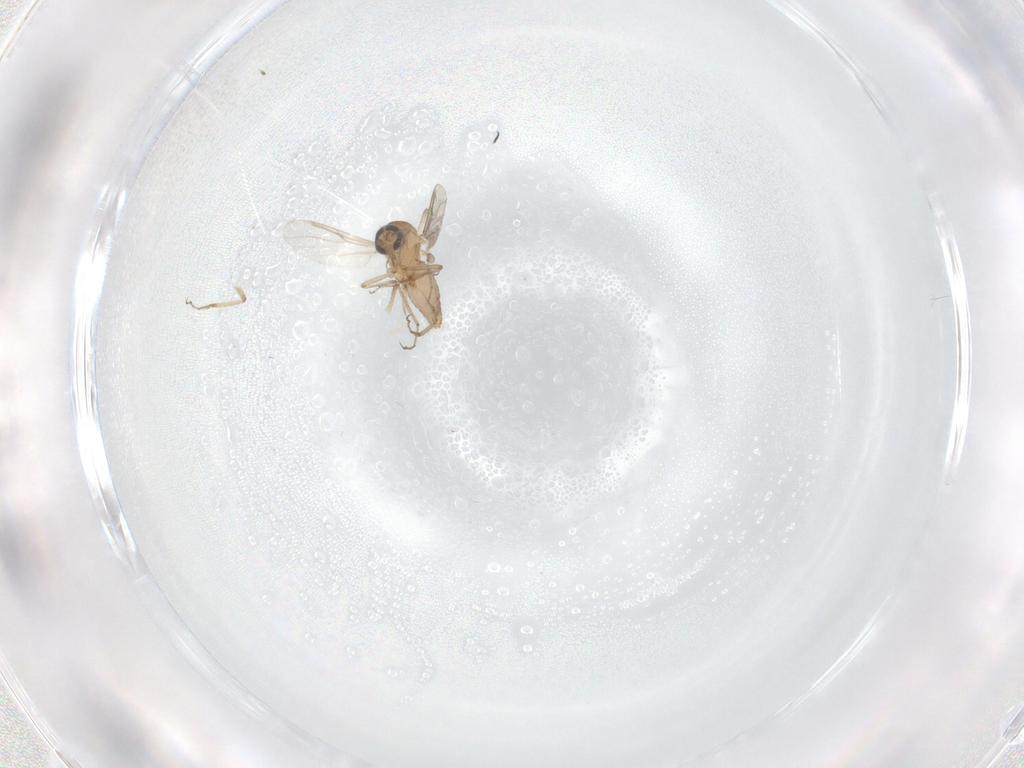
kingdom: Animalia
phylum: Arthropoda
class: Insecta
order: Diptera
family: Ceratopogonidae
